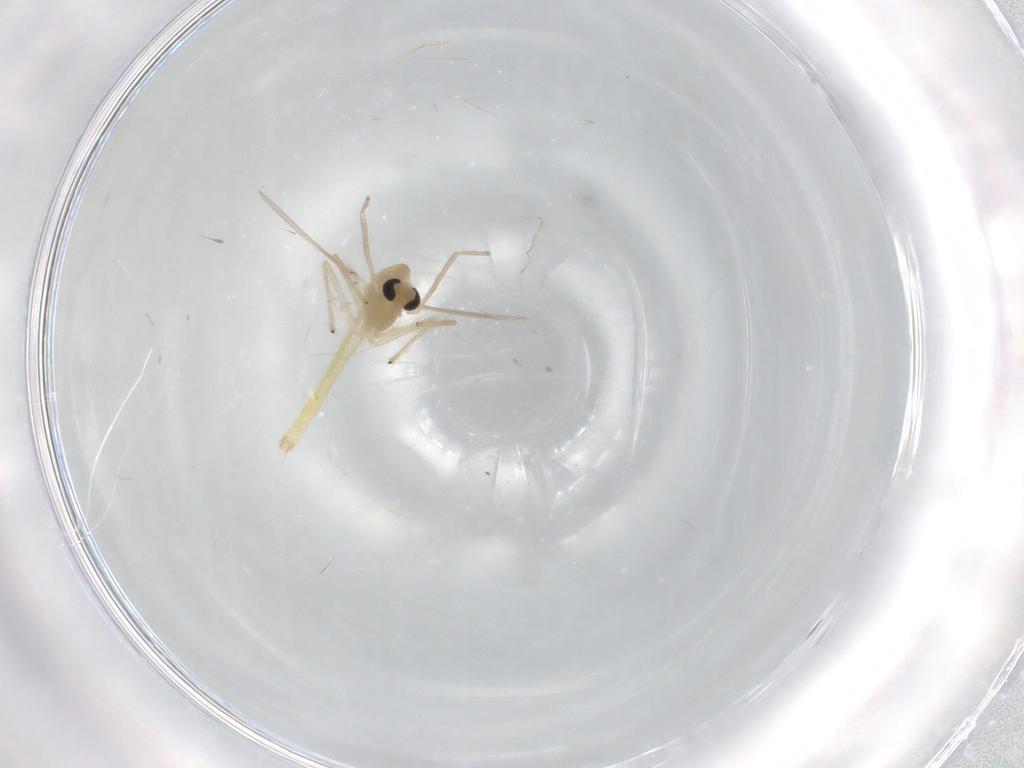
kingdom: Animalia
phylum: Arthropoda
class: Insecta
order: Diptera
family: Chironomidae
